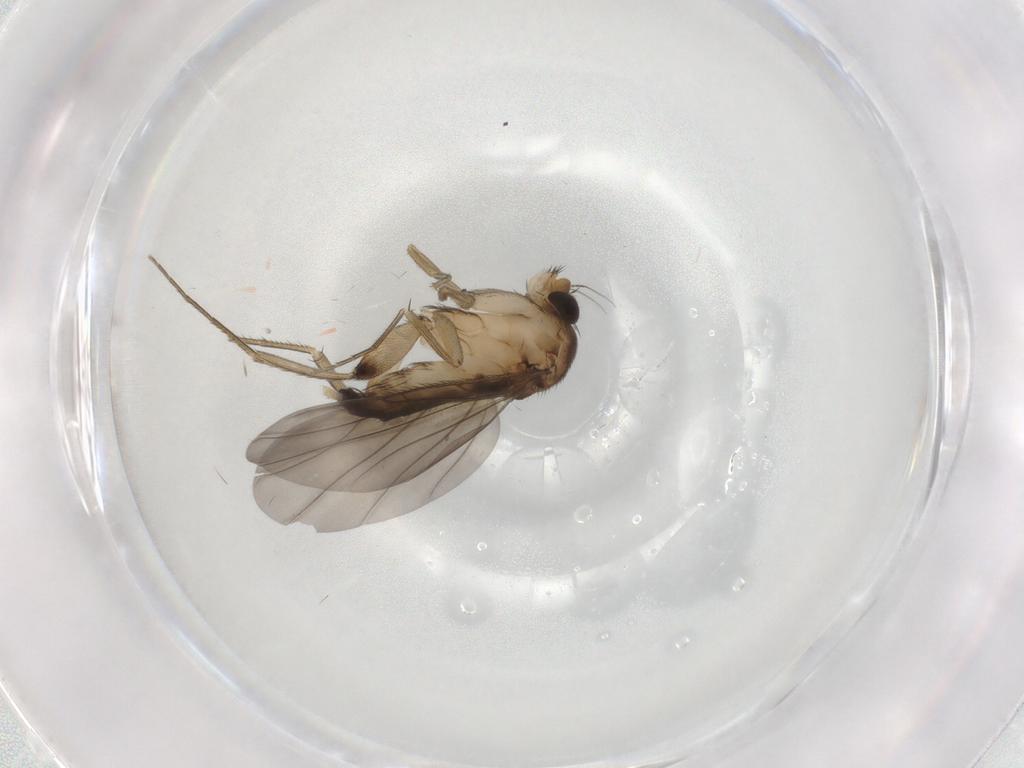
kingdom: Animalia
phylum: Arthropoda
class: Insecta
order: Diptera
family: Phoridae
